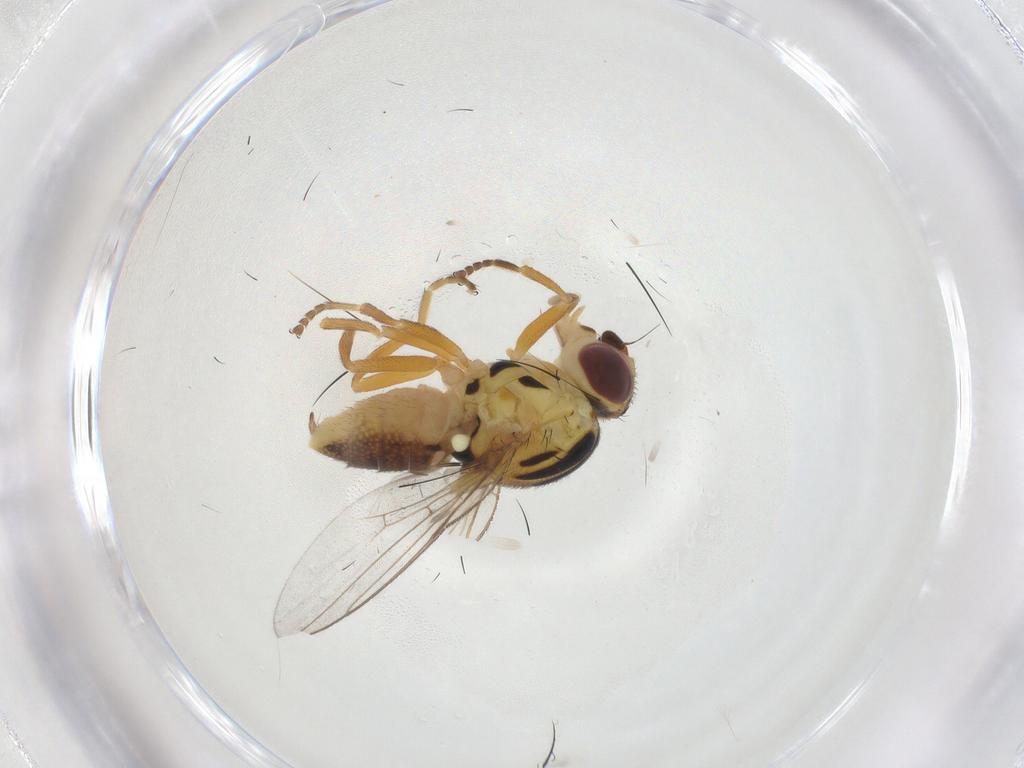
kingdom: Animalia
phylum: Arthropoda
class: Insecta
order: Diptera
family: Chloropidae
